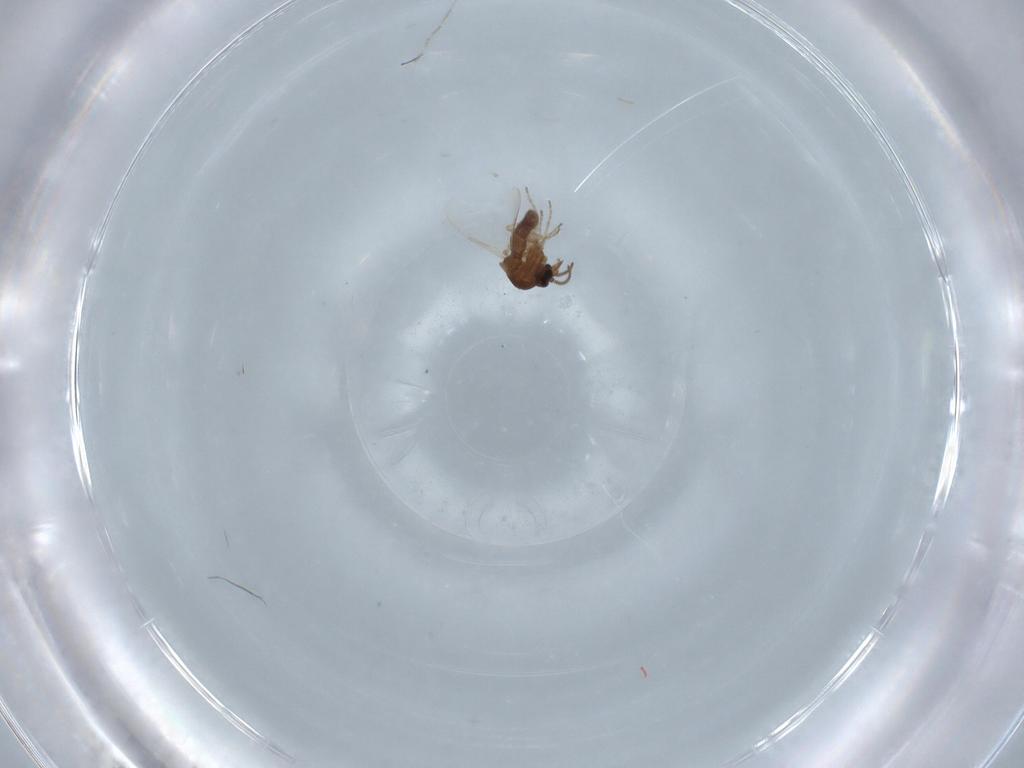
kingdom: Animalia
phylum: Arthropoda
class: Insecta
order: Diptera
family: Ceratopogonidae
